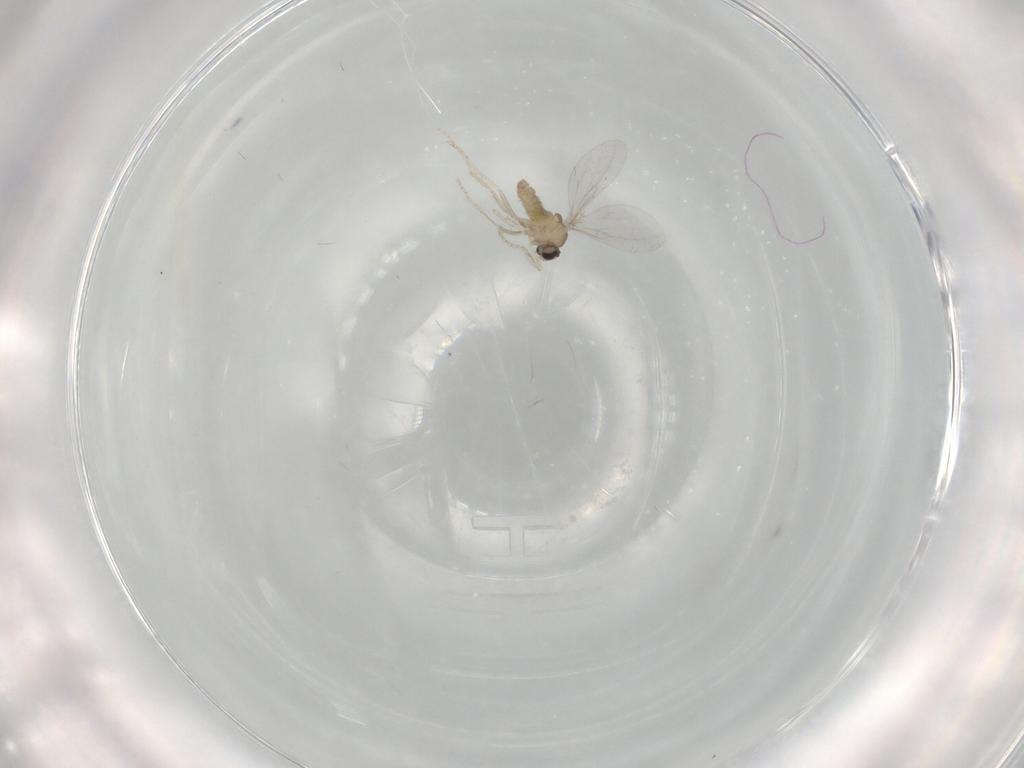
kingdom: Animalia
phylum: Arthropoda
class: Insecta
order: Diptera
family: Cecidomyiidae
